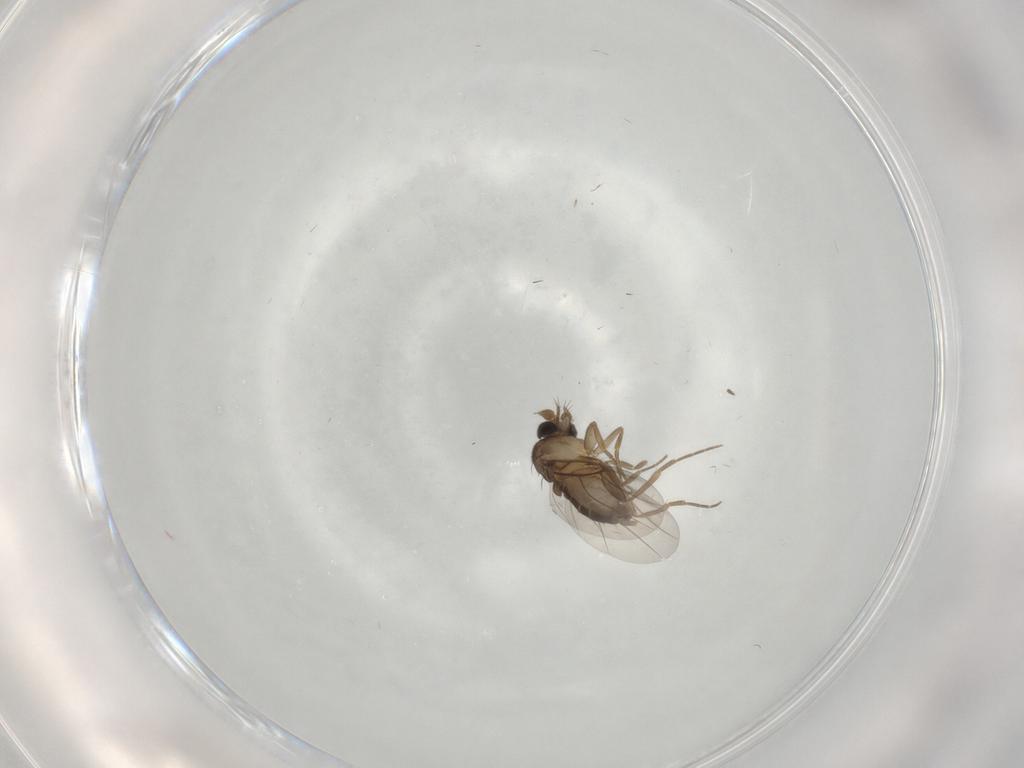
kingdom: Animalia
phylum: Arthropoda
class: Insecta
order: Diptera
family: Phoridae
